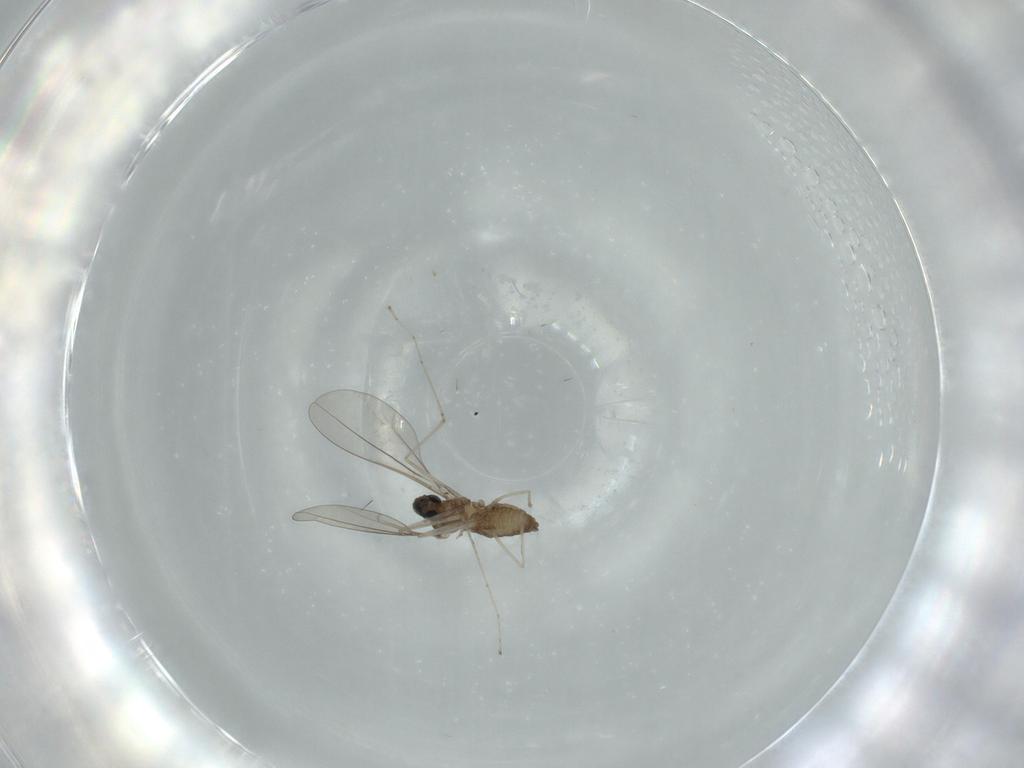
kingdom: Animalia
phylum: Arthropoda
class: Insecta
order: Diptera
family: Cecidomyiidae
